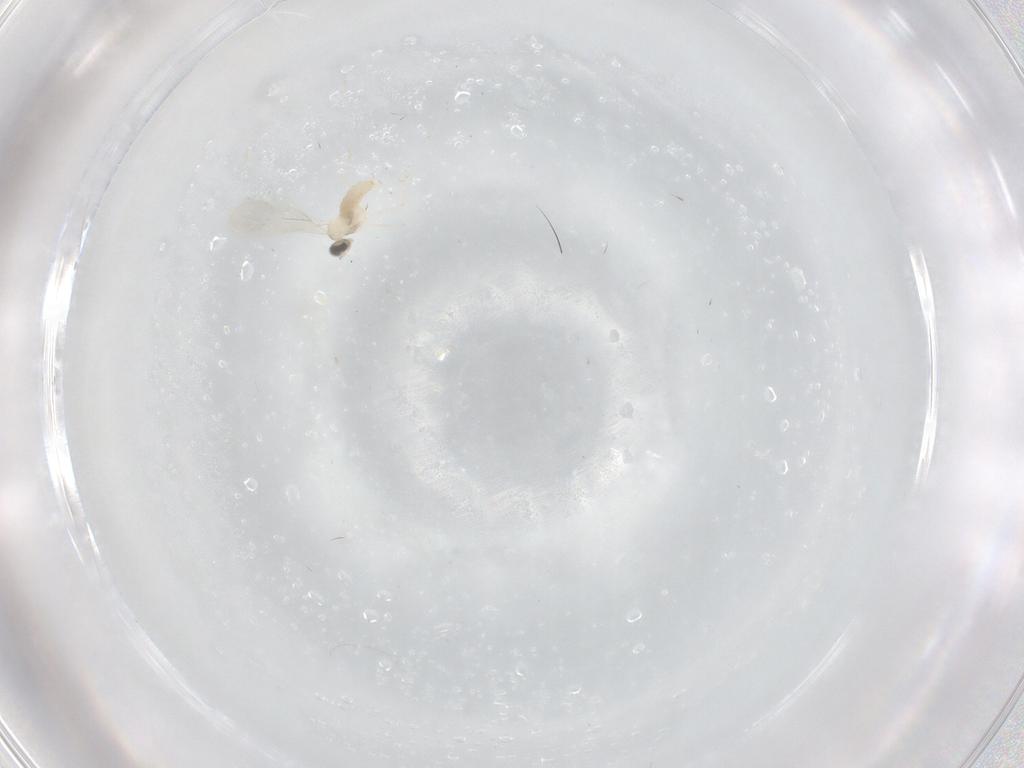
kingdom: Animalia
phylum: Arthropoda
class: Insecta
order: Diptera
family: Cecidomyiidae
